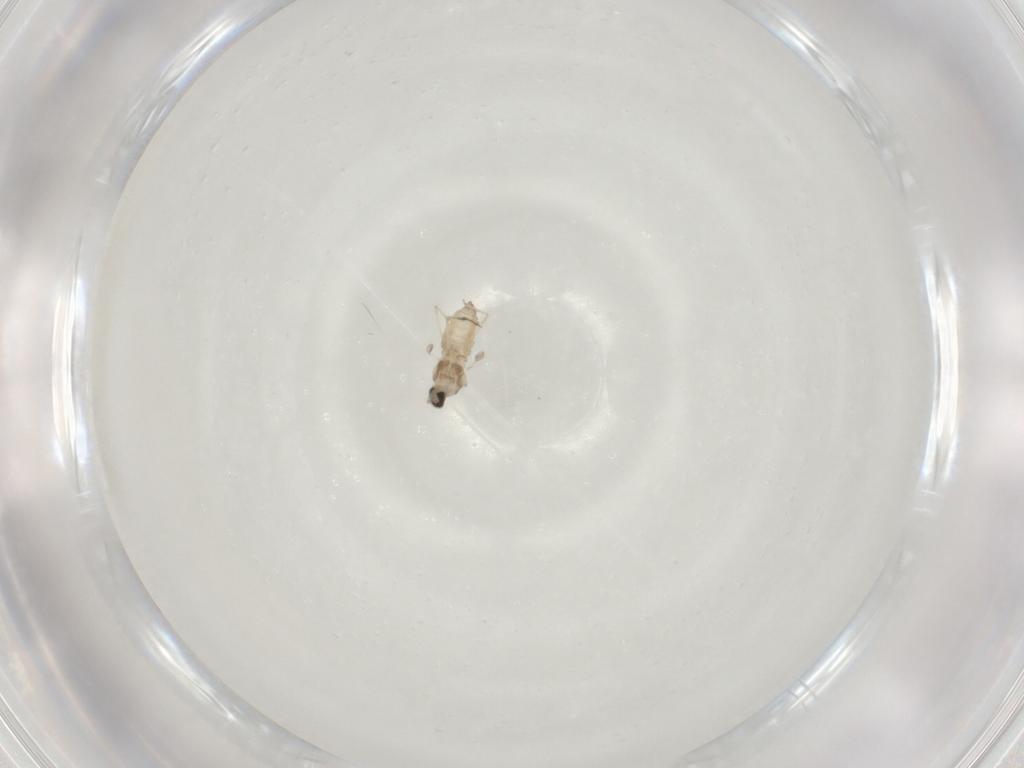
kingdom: Animalia
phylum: Arthropoda
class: Insecta
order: Diptera
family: Cecidomyiidae
